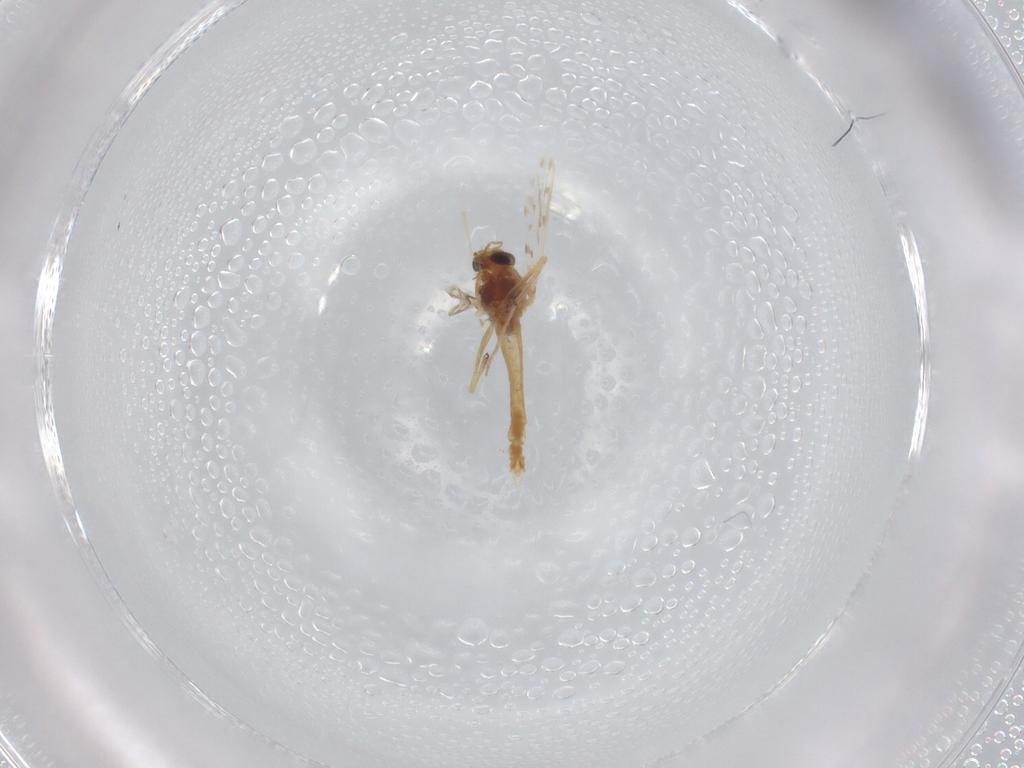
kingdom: Animalia
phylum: Arthropoda
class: Insecta
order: Diptera
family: Chironomidae
